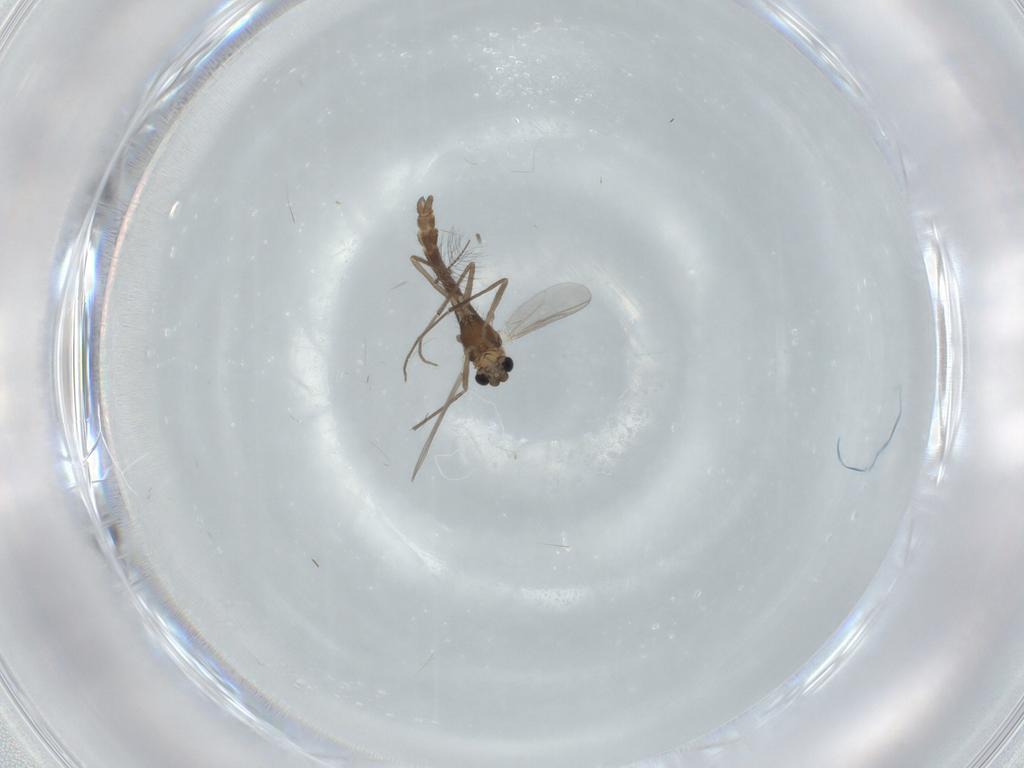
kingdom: Animalia
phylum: Arthropoda
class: Insecta
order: Diptera
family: Chironomidae
